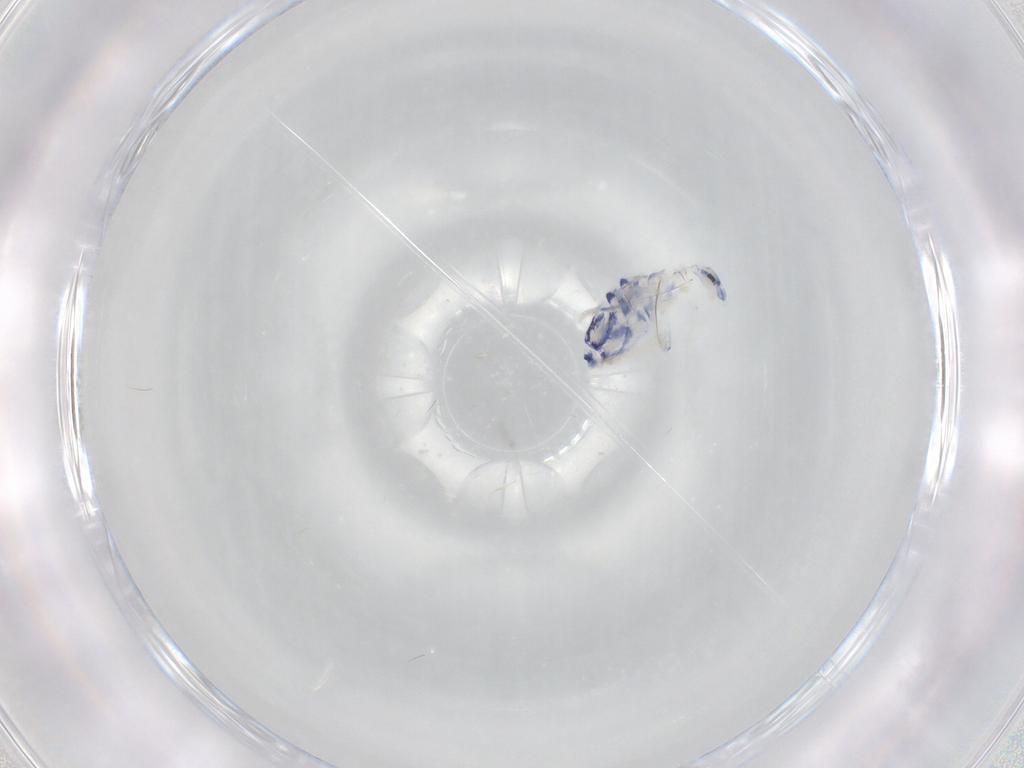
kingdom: Animalia
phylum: Arthropoda
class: Collembola
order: Entomobryomorpha
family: Entomobryidae
